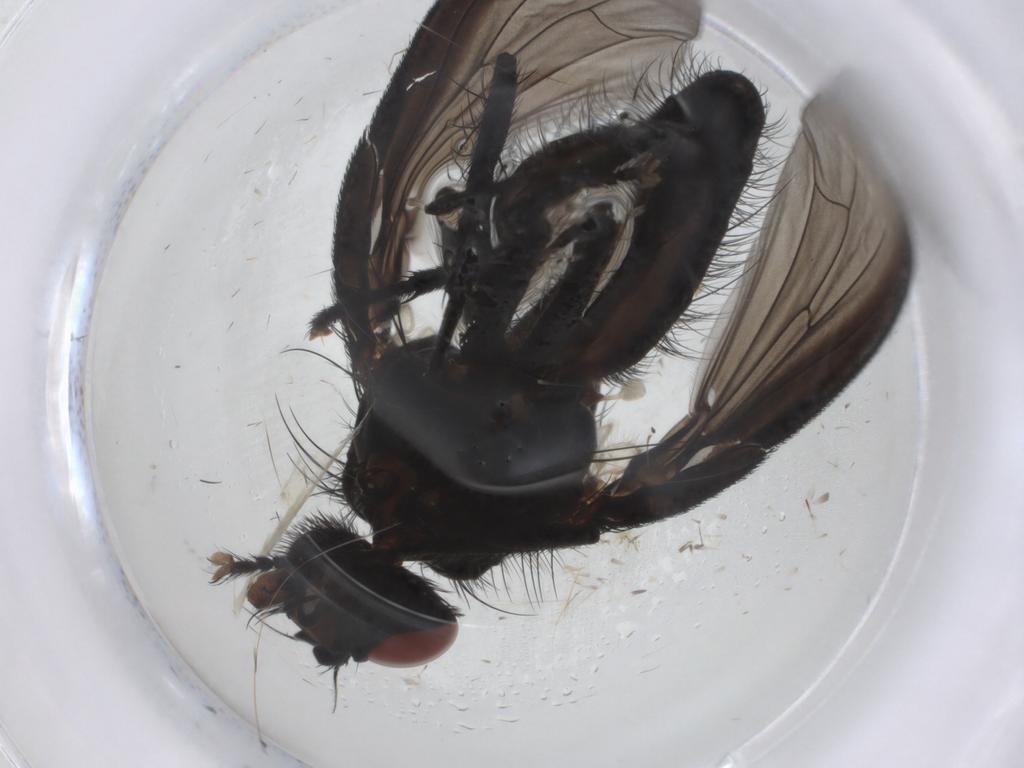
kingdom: Animalia
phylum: Arthropoda
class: Insecta
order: Diptera
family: Anthomyiidae
